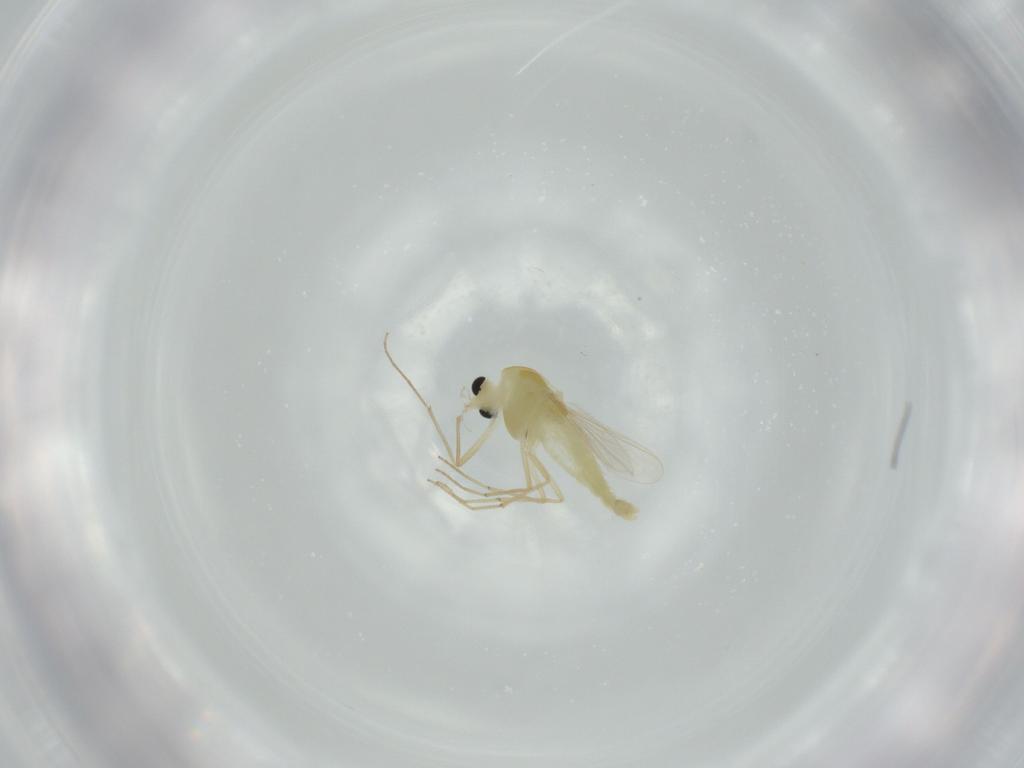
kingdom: Animalia
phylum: Arthropoda
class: Insecta
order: Diptera
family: Chironomidae
